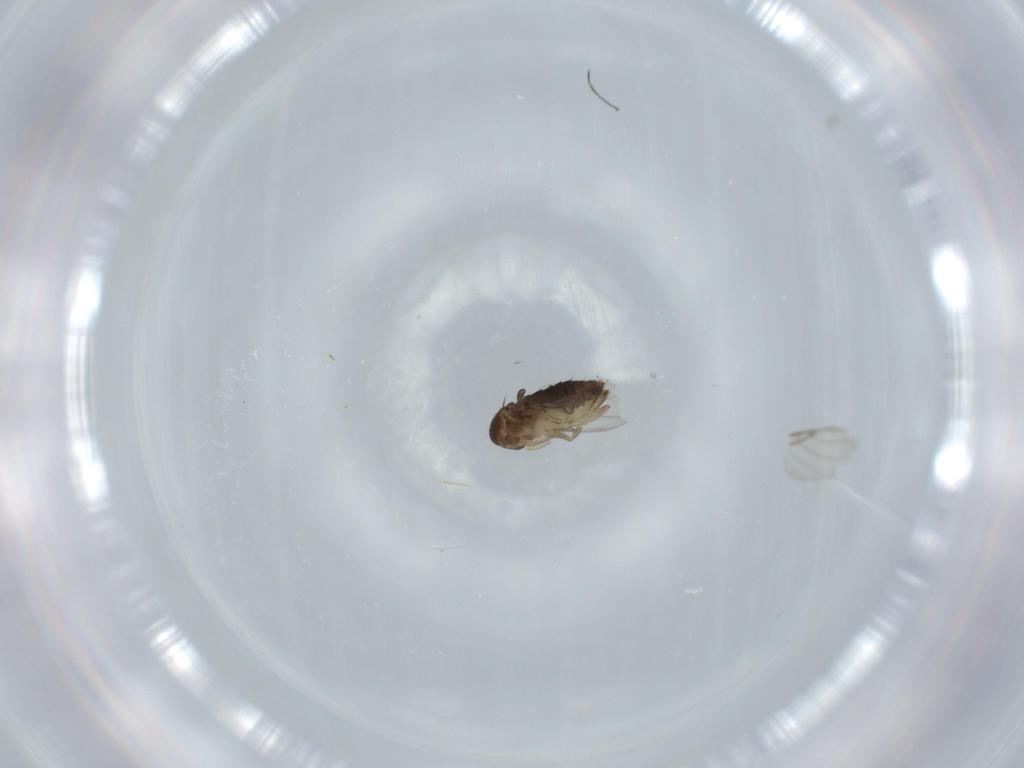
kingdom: Animalia
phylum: Arthropoda
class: Insecta
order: Diptera
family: Phoridae
